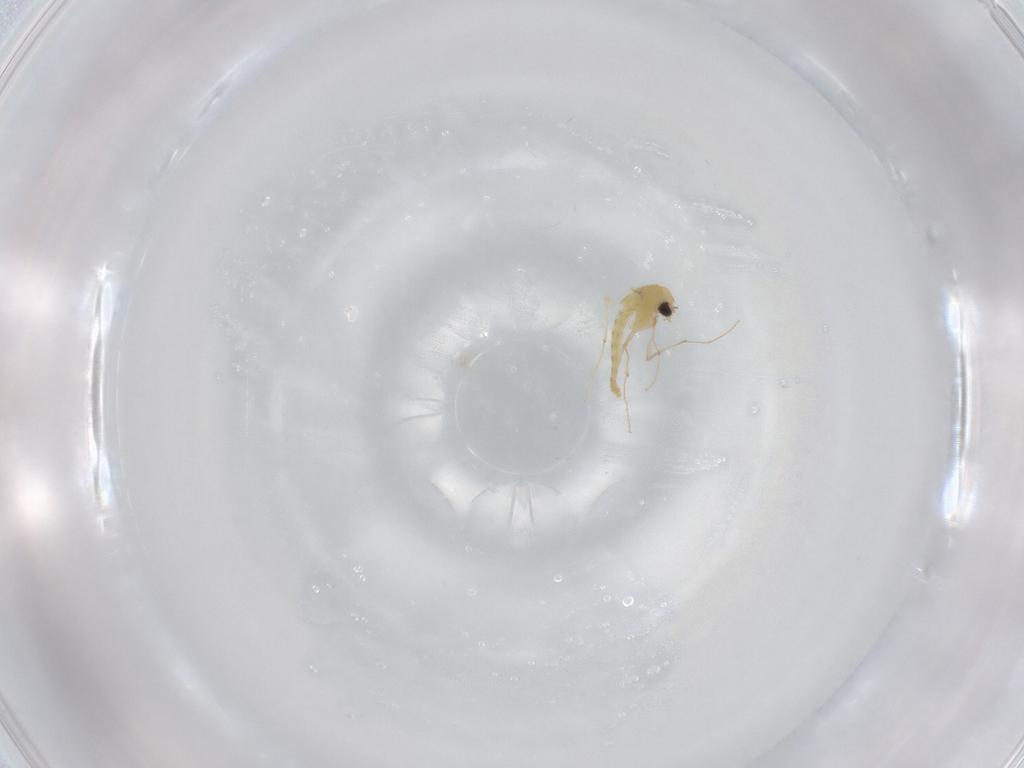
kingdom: Animalia
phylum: Arthropoda
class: Insecta
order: Diptera
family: Chironomidae
